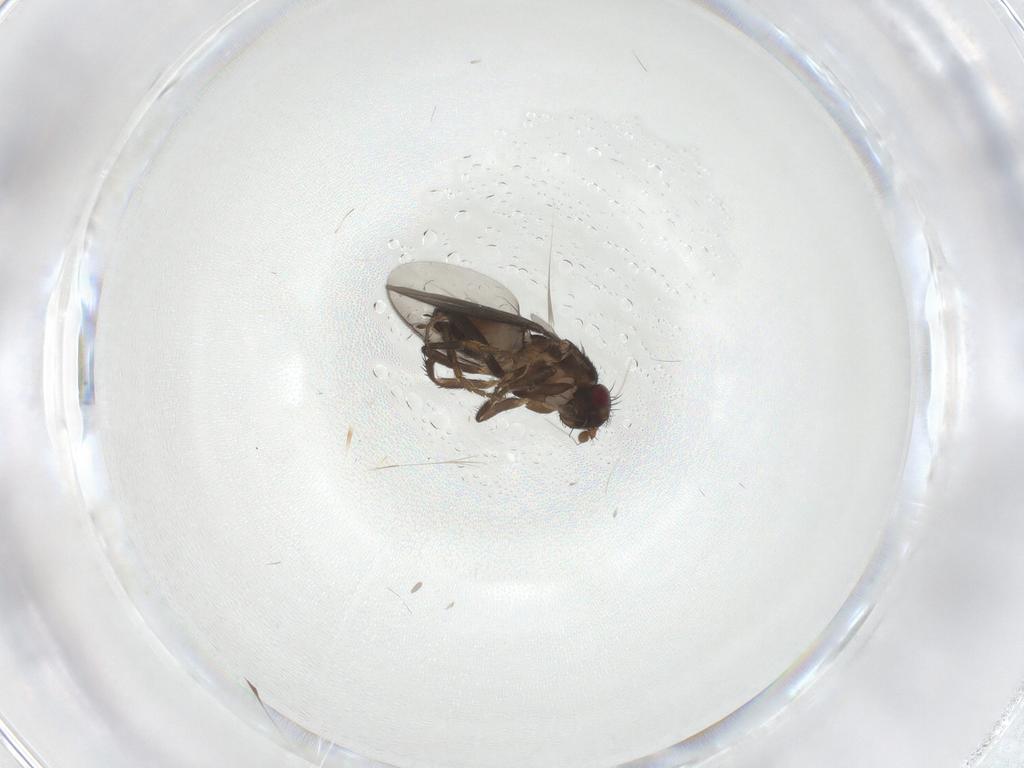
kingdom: Animalia
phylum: Arthropoda
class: Insecta
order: Diptera
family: Sphaeroceridae
